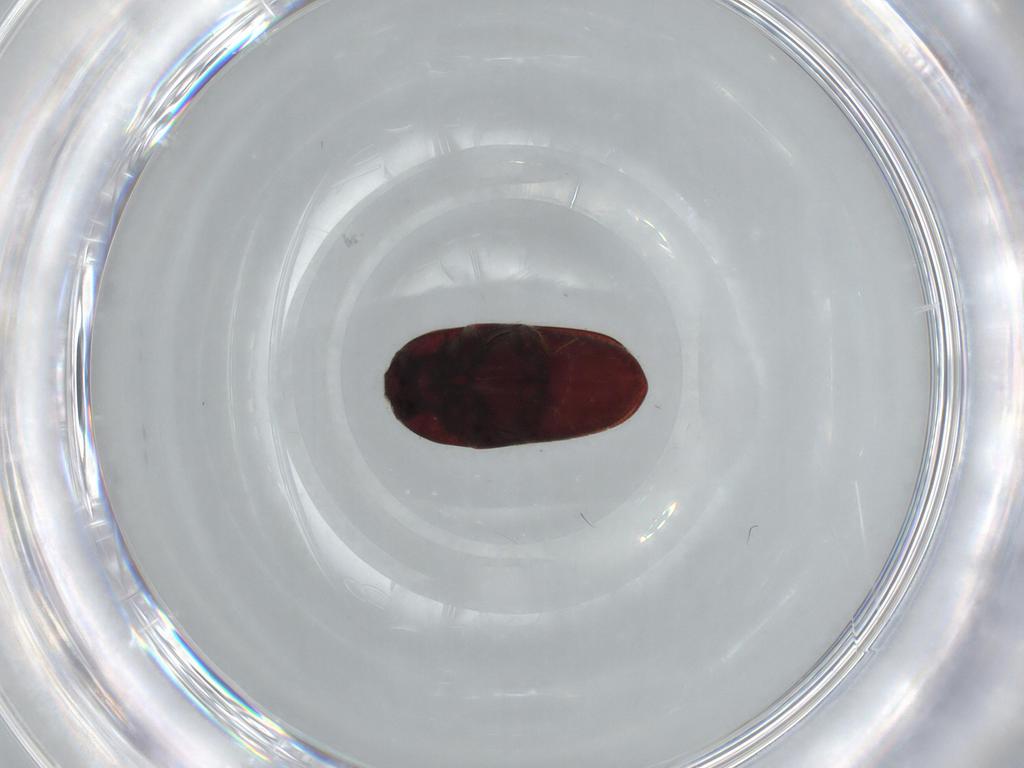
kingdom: Animalia
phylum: Arthropoda
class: Insecta
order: Coleoptera
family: Throscidae
